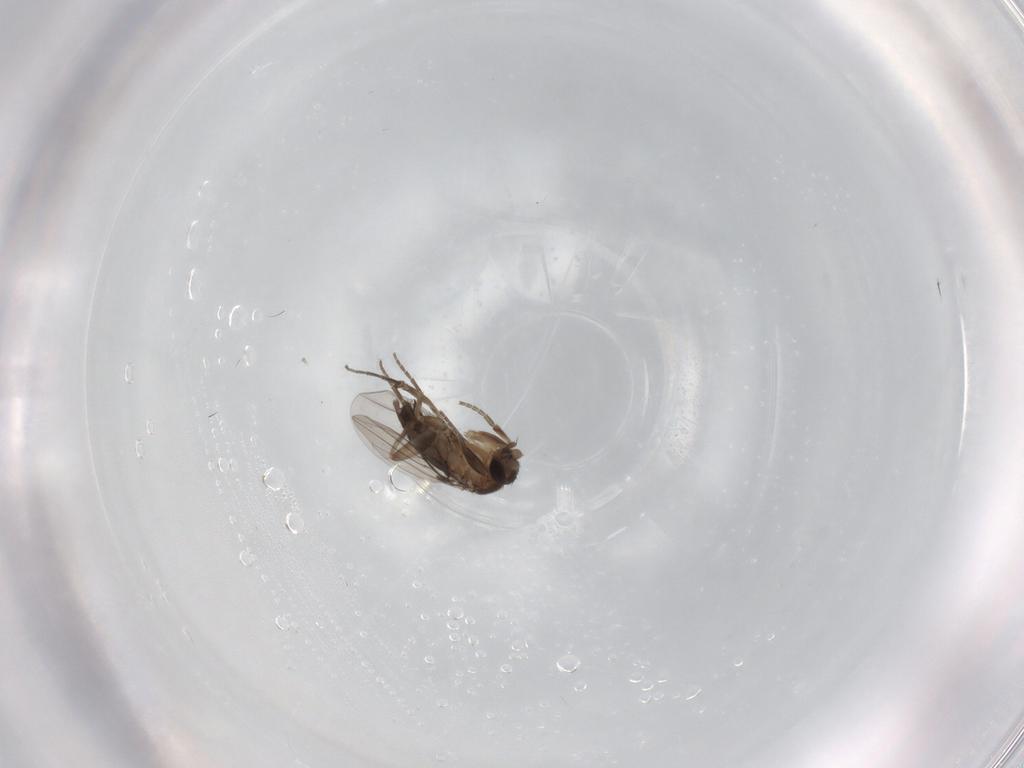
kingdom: Animalia
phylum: Arthropoda
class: Insecta
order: Diptera
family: Phoridae
